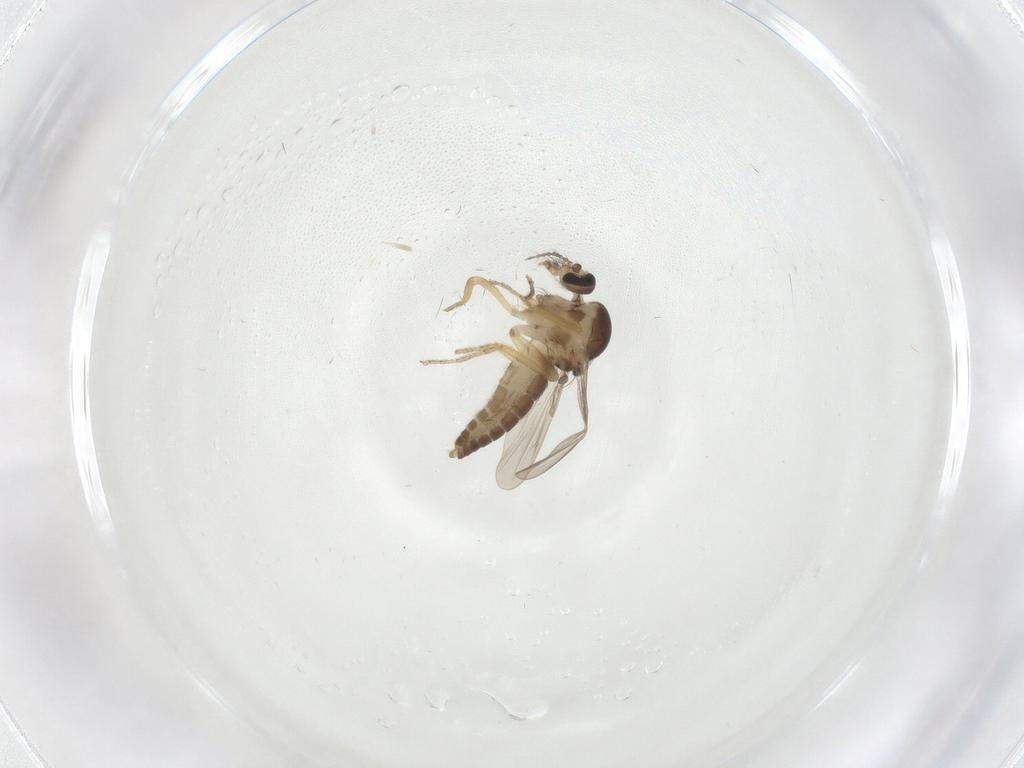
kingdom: Animalia
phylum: Arthropoda
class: Insecta
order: Diptera
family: Ceratopogonidae
